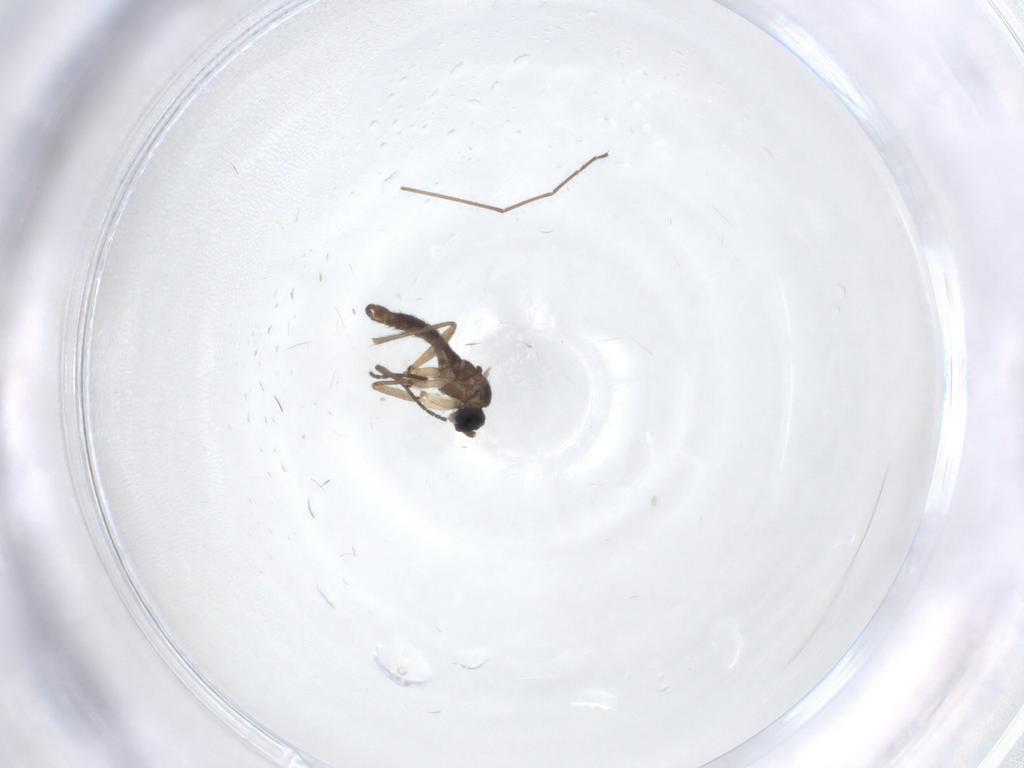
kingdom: Animalia
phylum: Arthropoda
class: Insecta
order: Diptera
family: Chironomidae
